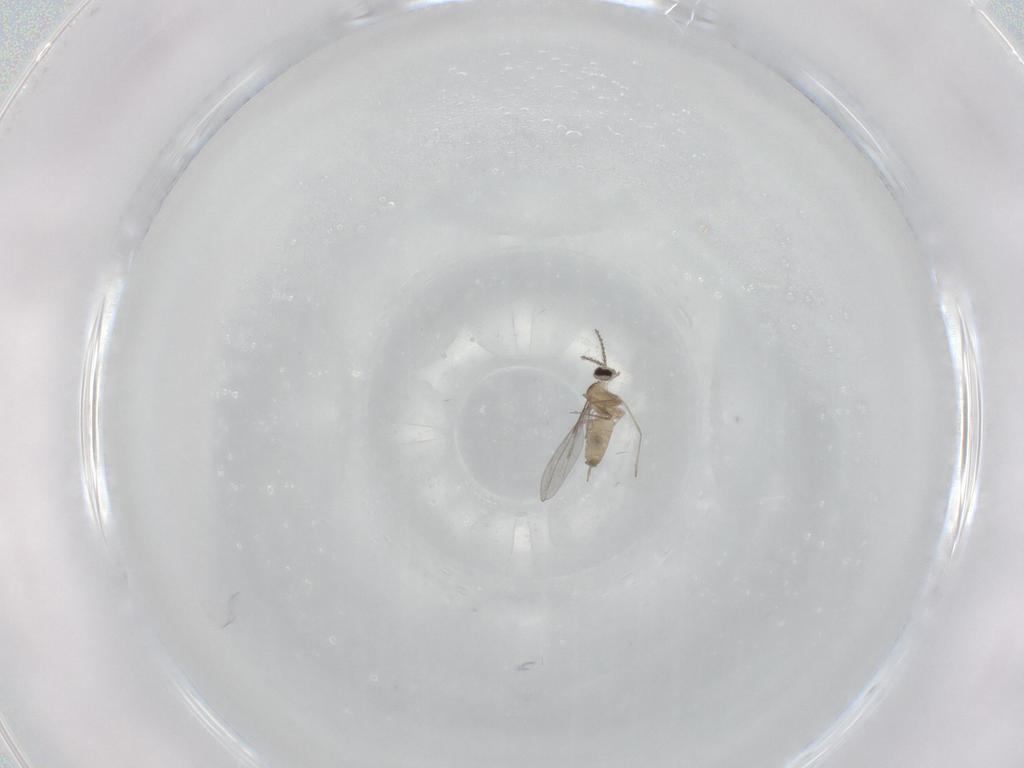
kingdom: Animalia
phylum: Arthropoda
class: Insecta
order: Diptera
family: Cecidomyiidae
